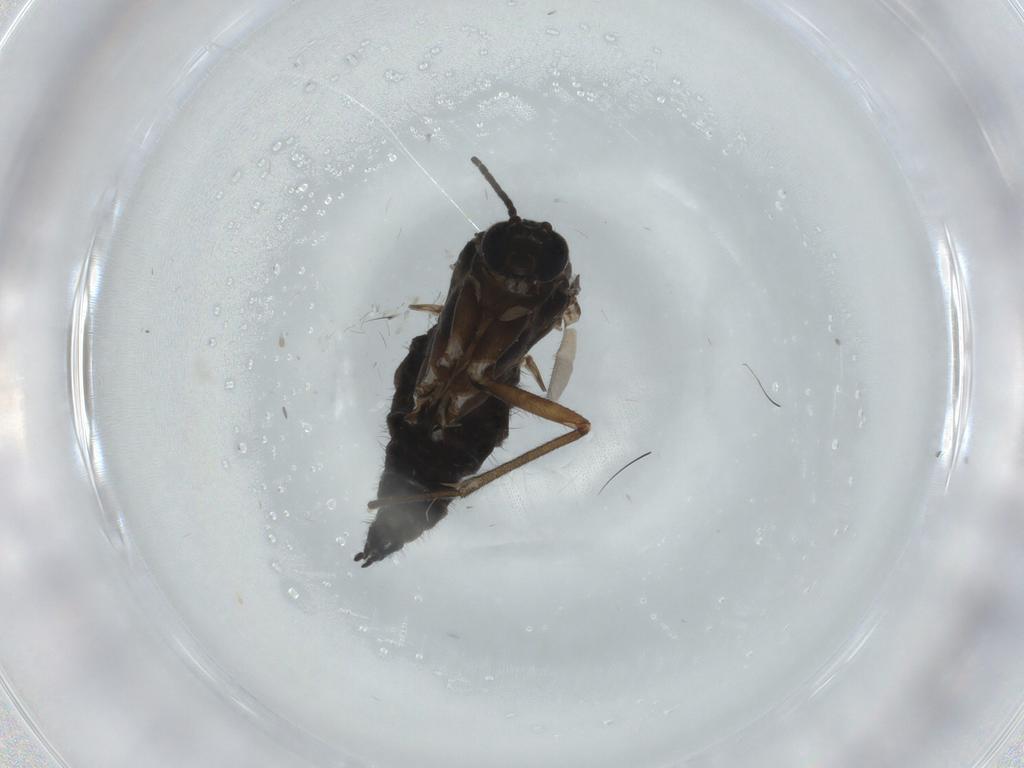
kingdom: Animalia
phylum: Arthropoda
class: Insecta
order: Diptera
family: Sciaridae
